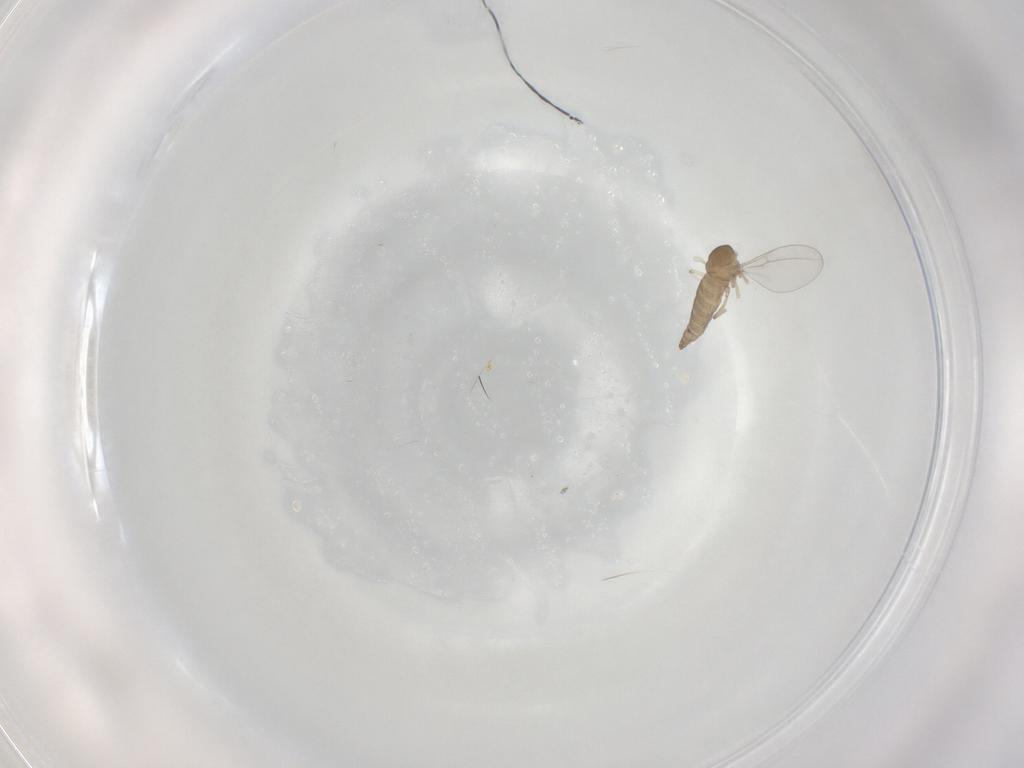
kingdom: Animalia
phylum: Arthropoda
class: Insecta
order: Diptera
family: Cecidomyiidae
